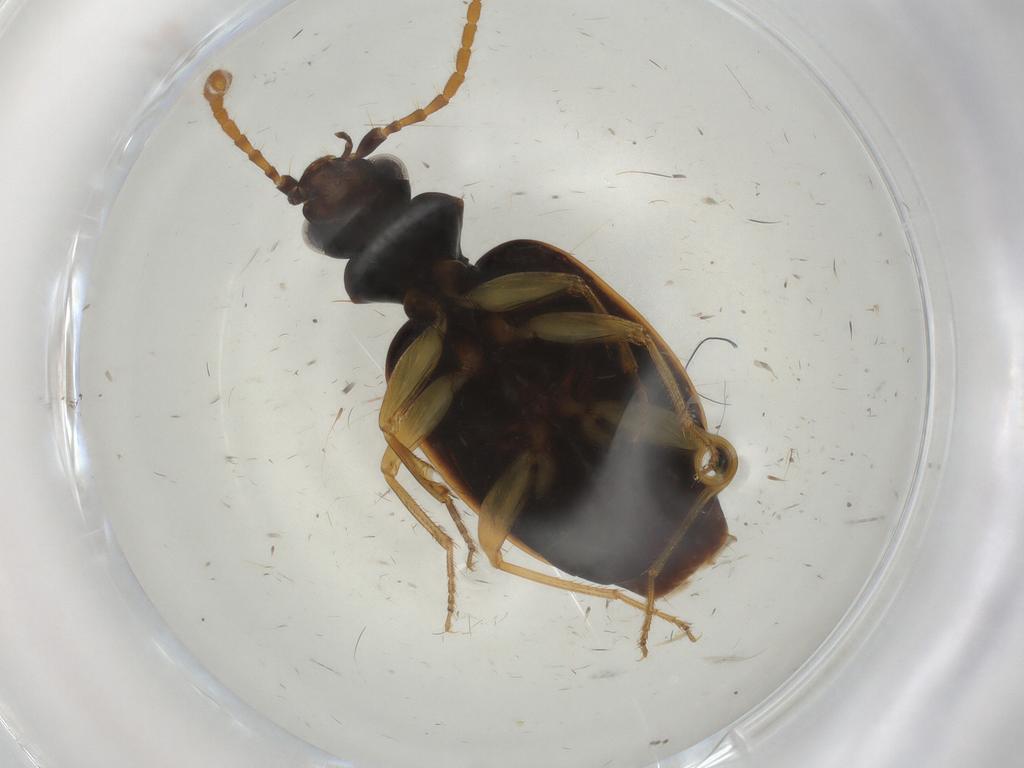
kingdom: Animalia
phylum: Arthropoda
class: Insecta
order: Coleoptera
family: Carabidae
